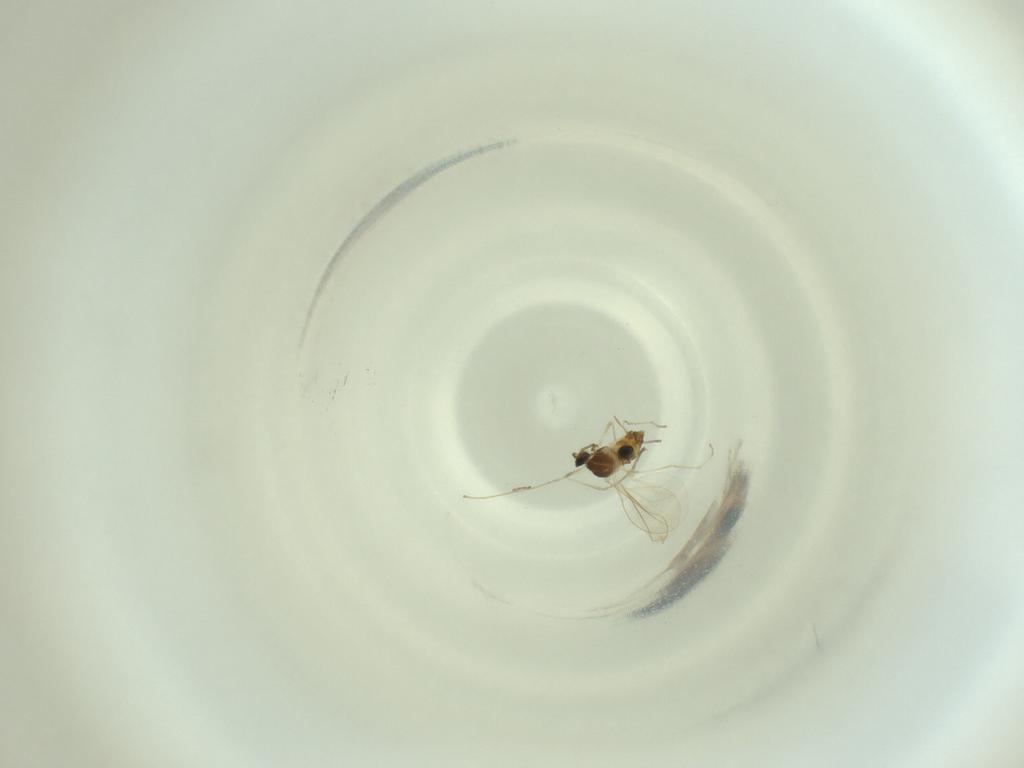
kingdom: Animalia
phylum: Arthropoda
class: Insecta
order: Diptera
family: Cecidomyiidae
